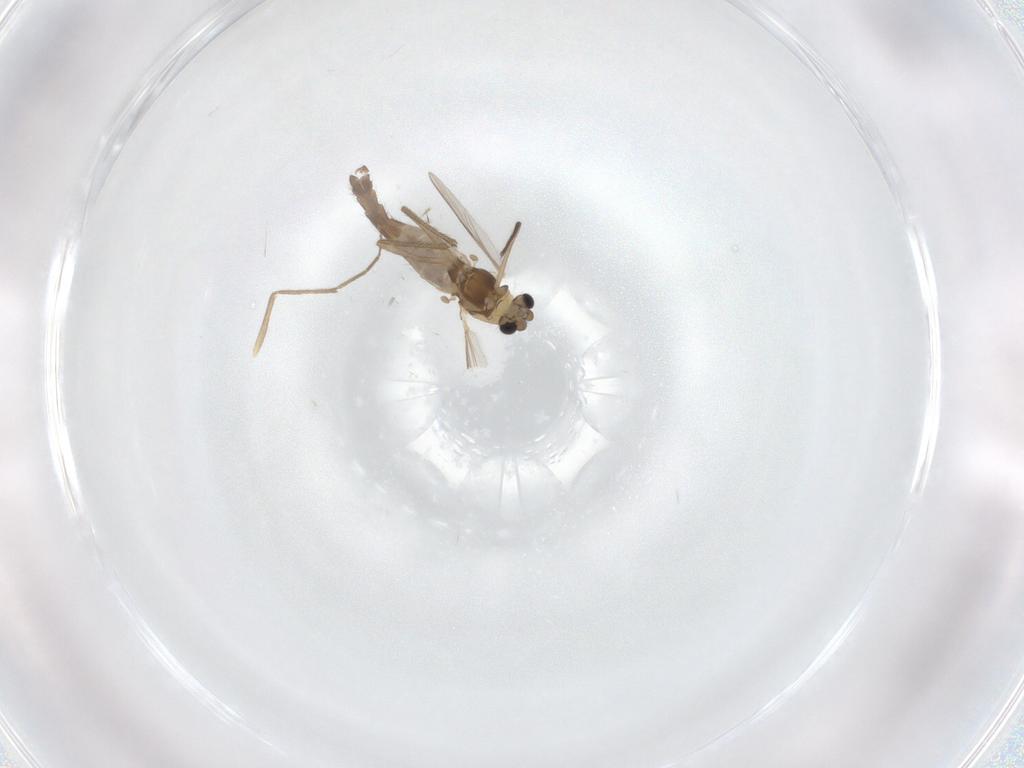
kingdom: Animalia
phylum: Arthropoda
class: Insecta
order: Diptera
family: Chironomidae
